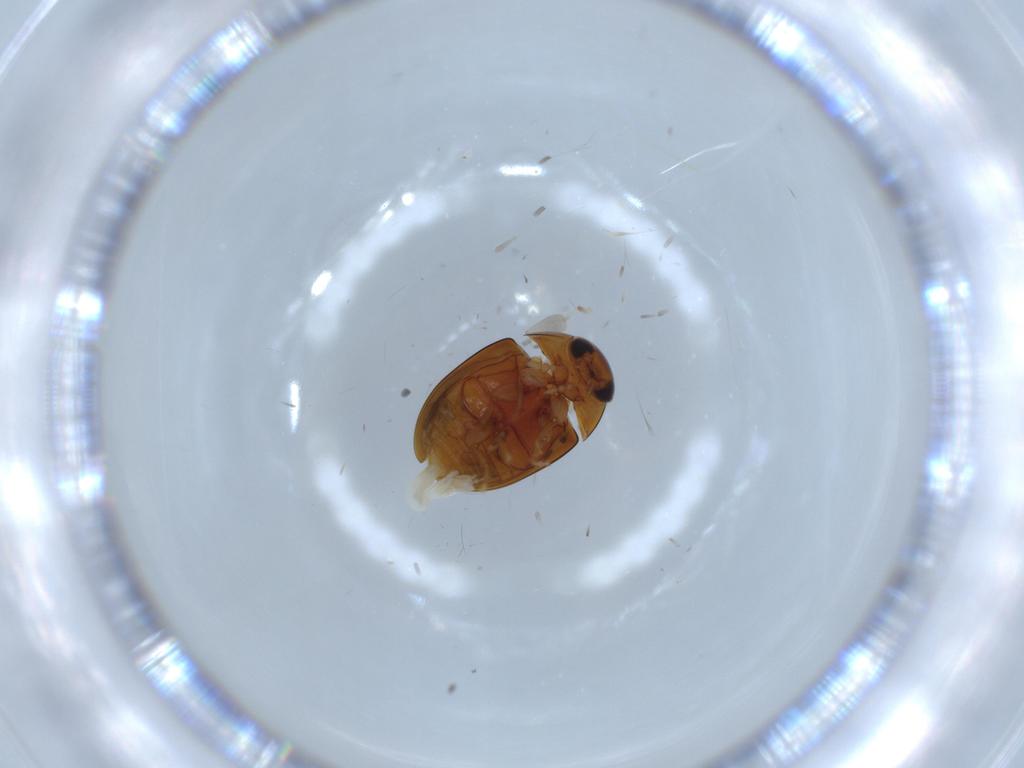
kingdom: Animalia
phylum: Arthropoda
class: Insecta
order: Coleoptera
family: Phalacridae
